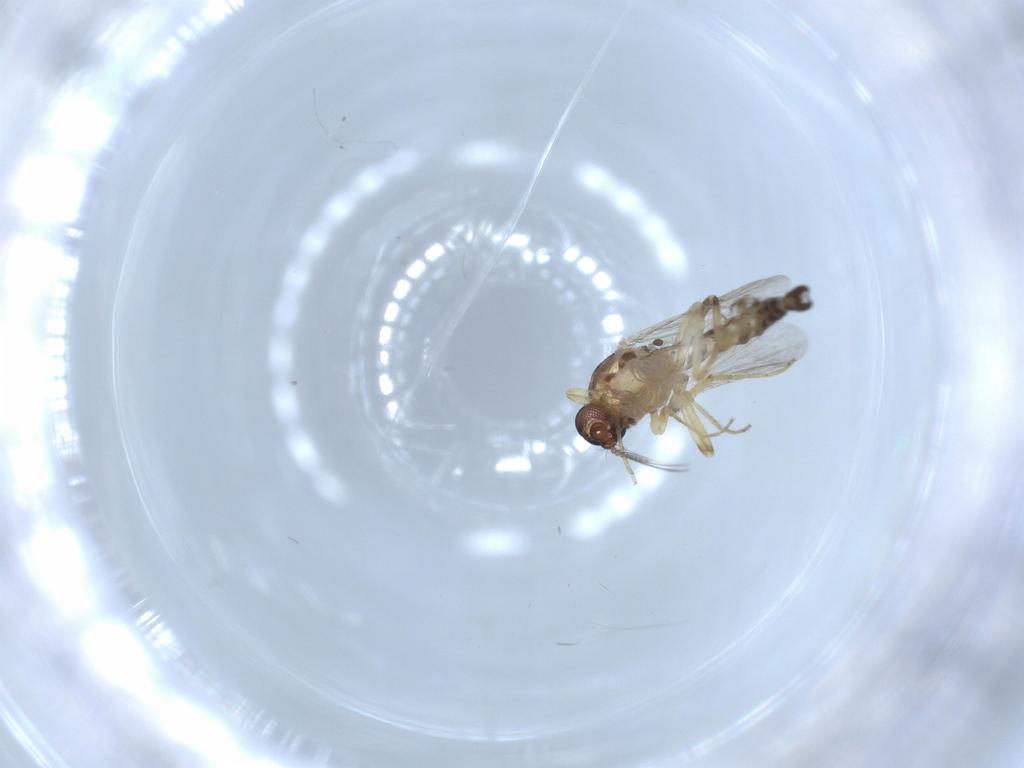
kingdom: Animalia
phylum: Arthropoda
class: Insecta
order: Diptera
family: Ceratopogonidae
